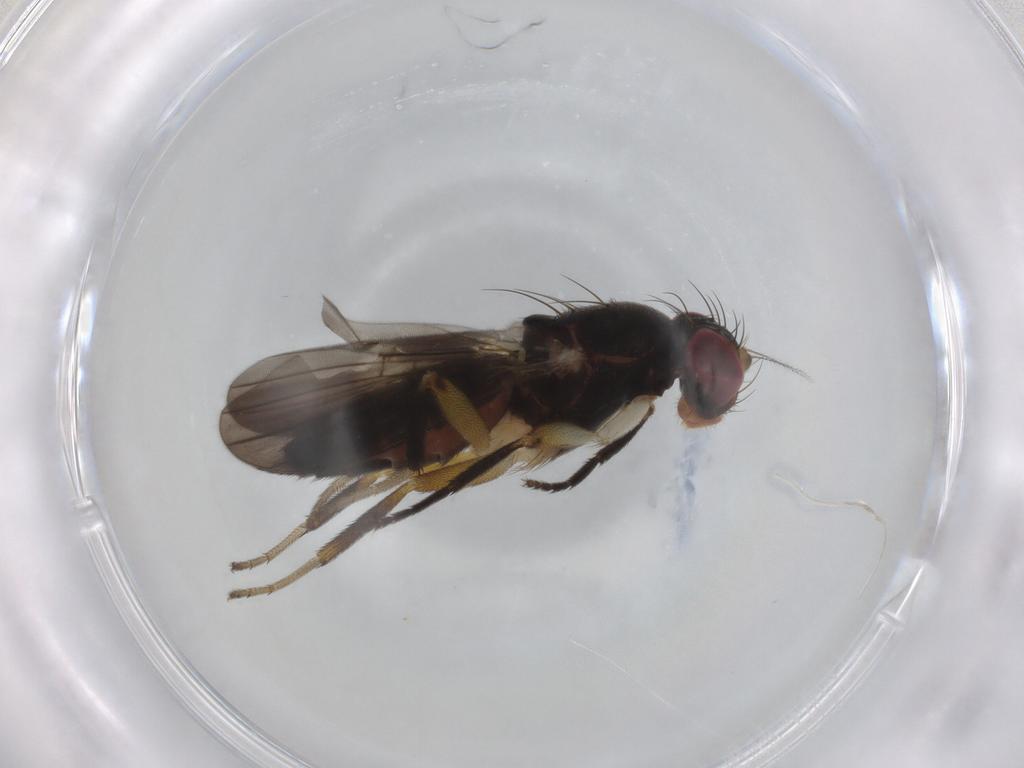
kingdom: Animalia
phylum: Arthropoda
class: Insecta
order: Diptera
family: Clusiidae
